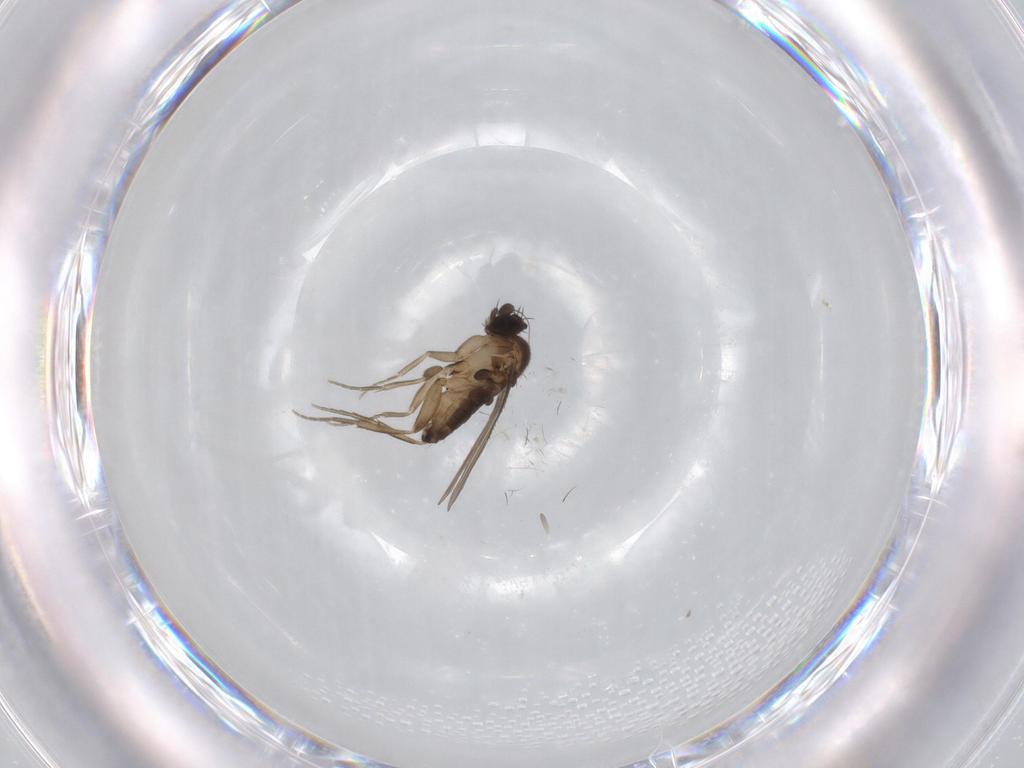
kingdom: Animalia
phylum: Arthropoda
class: Insecta
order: Diptera
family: Phoridae
